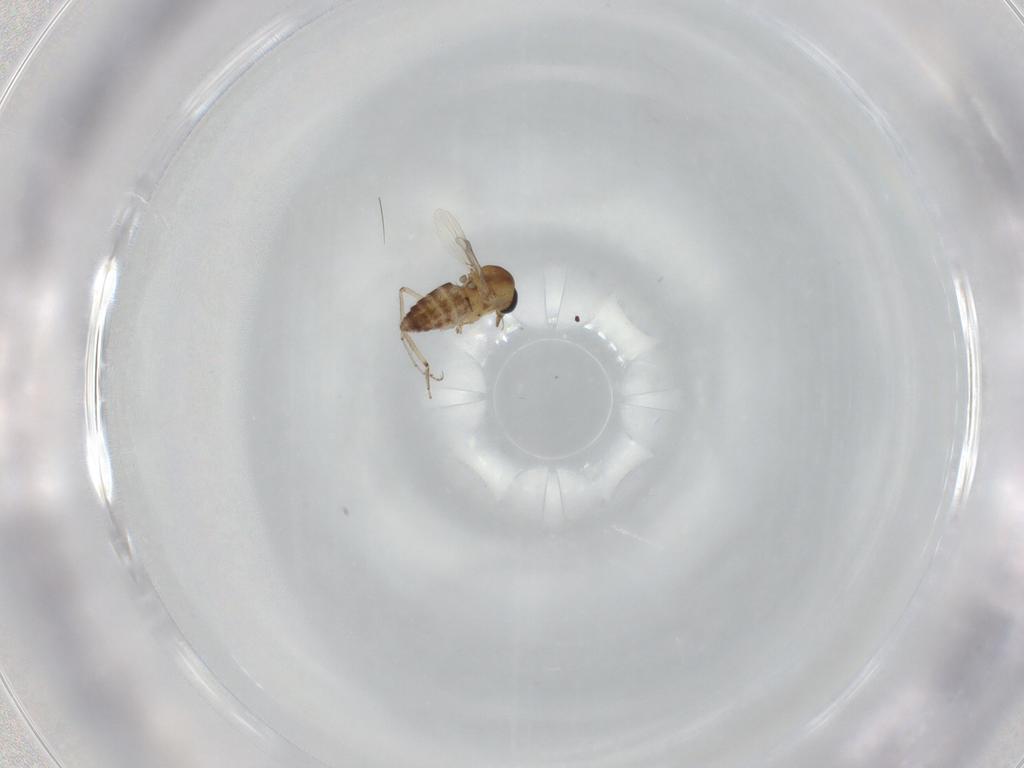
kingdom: Animalia
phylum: Arthropoda
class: Insecta
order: Diptera
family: Ceratopogonidae
